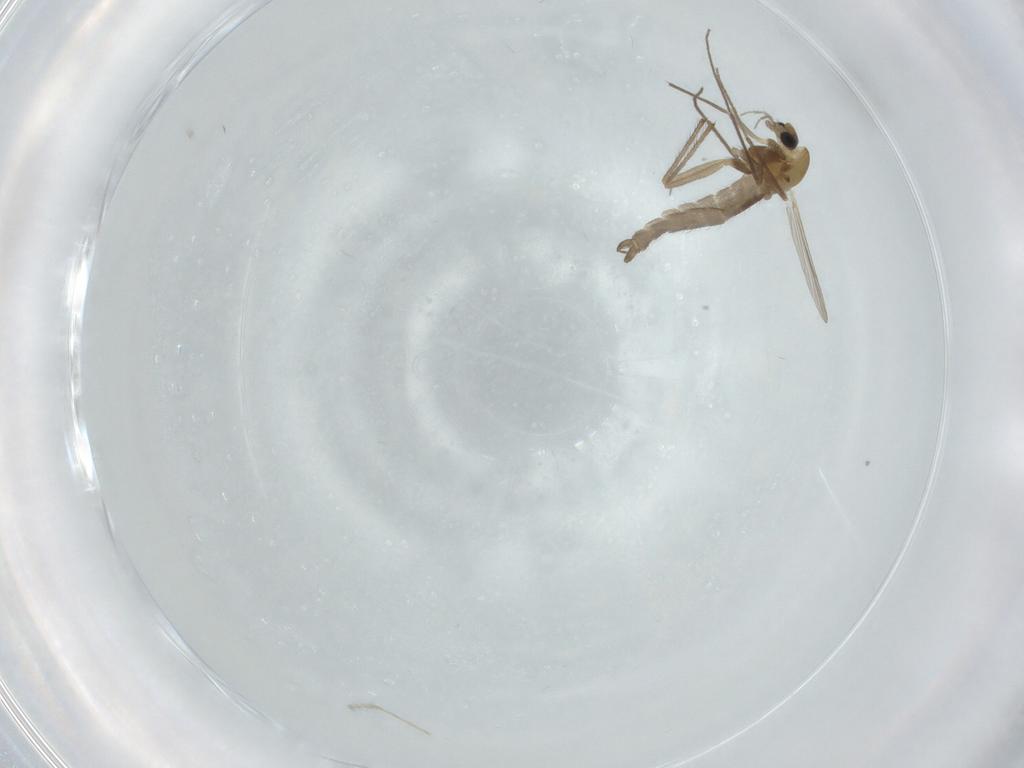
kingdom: Animalia
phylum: Arthropoda
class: Insecta
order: Diptera
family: Chironomidae
